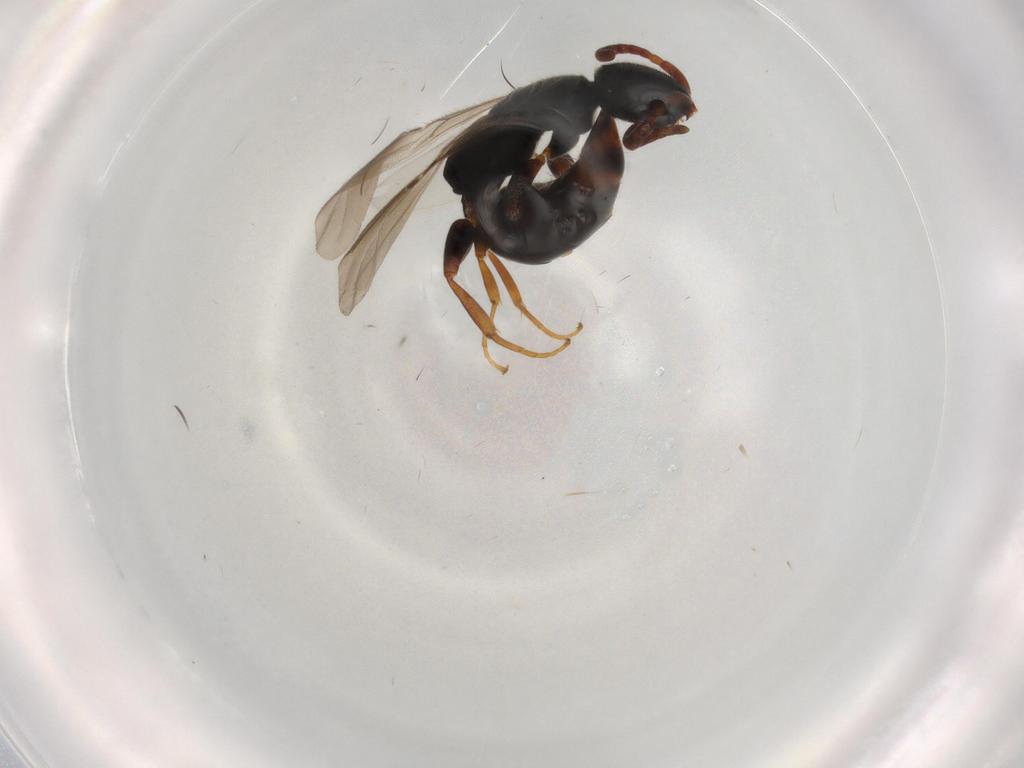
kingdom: Animalia
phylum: Arthropoda
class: Insecta
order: Hymenoptera
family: Bethylidae
